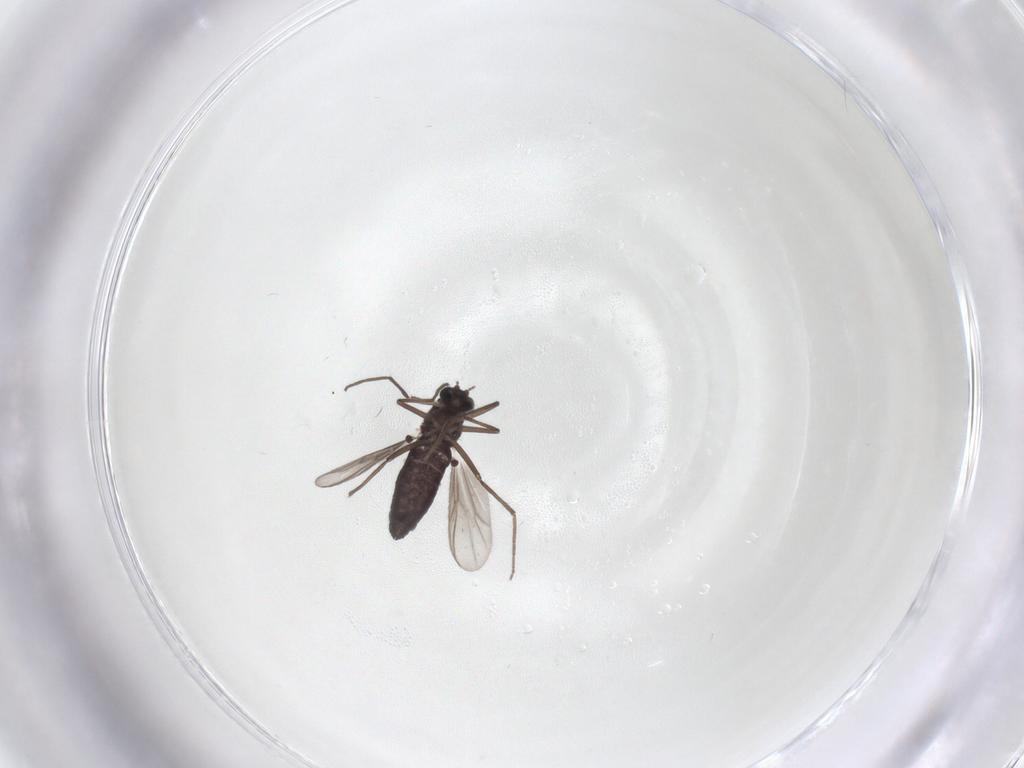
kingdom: Animalia
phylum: Arthropoda
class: Insecta
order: Diptera
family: Chironomidae
